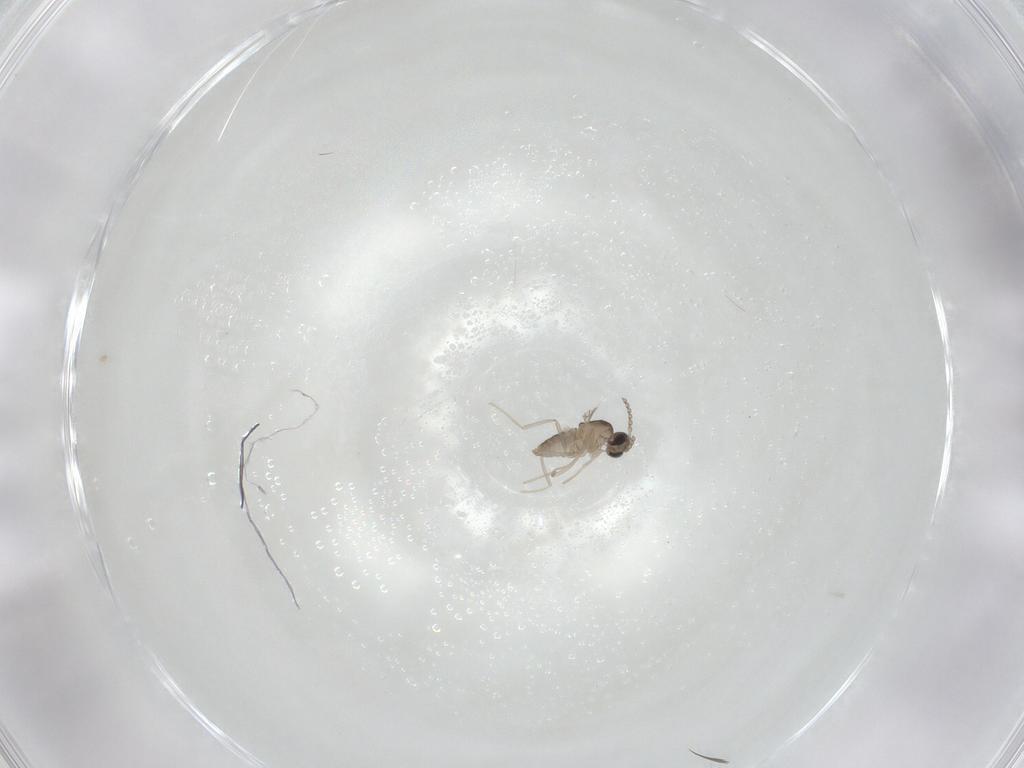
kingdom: Animalia
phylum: Arthropoda
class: Insecta
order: Diptera
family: Cecidomyiidae
